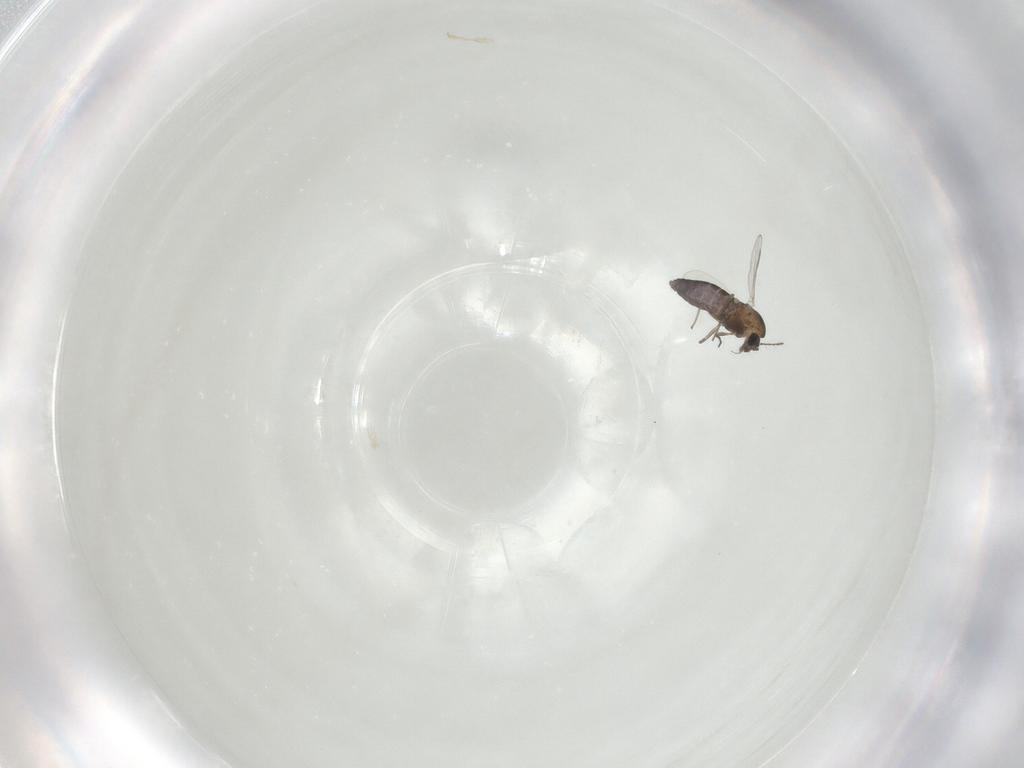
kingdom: Animalia
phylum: Arthropoda
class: Insecta
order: Diptera
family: Chironomidae
